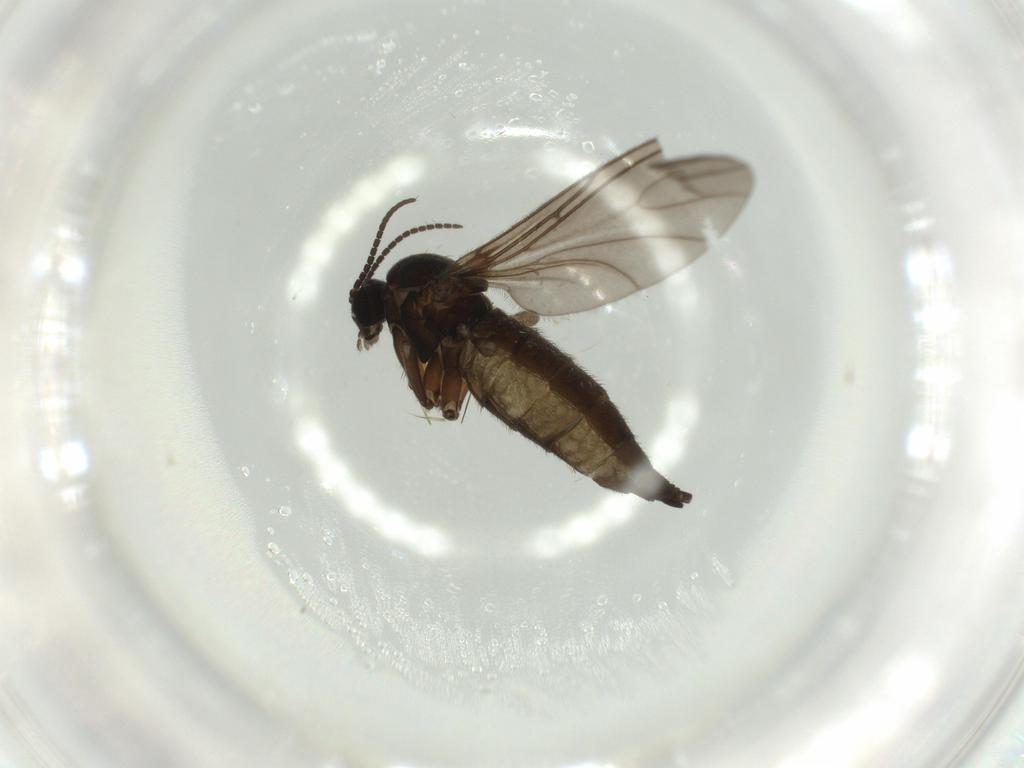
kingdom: Animalia
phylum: Arthropoda
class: Insecta
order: Diptera
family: Sciaridae
